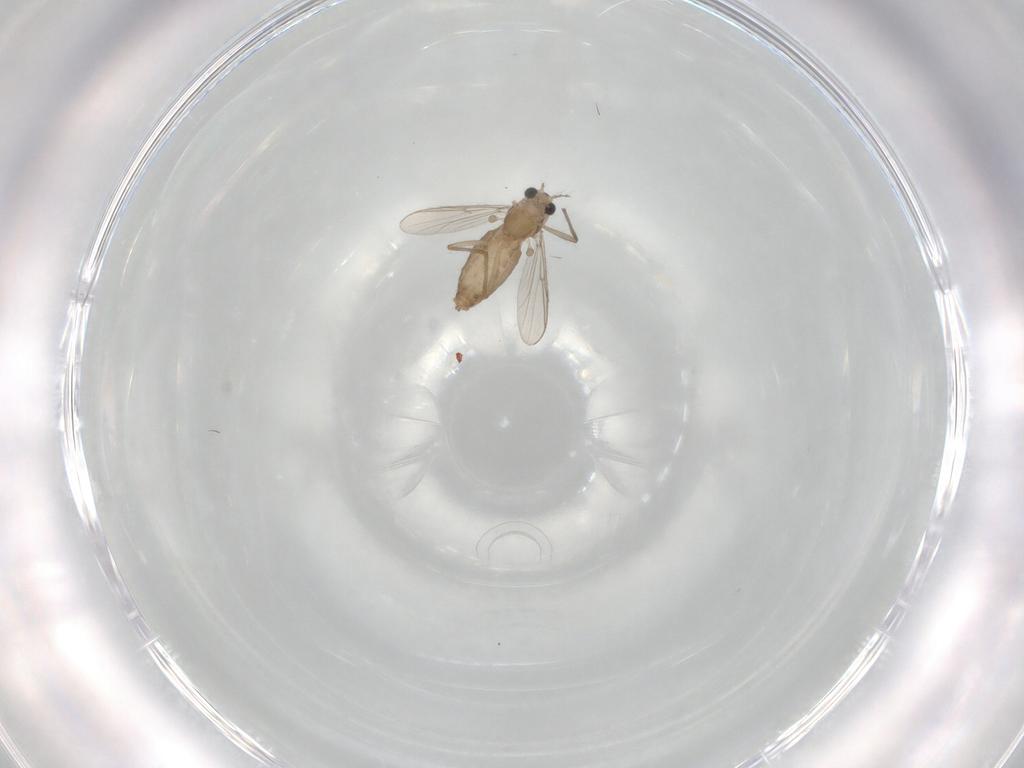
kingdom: Animalia
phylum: Arthropoda
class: Insecta
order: Diptera
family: Chironomidae
